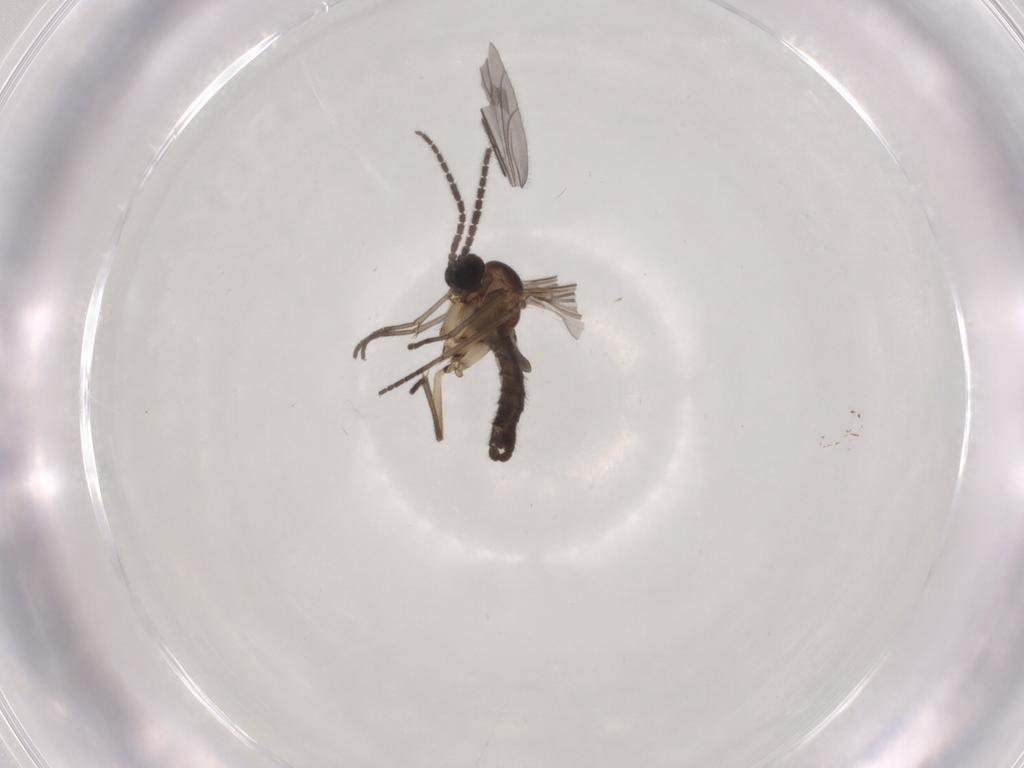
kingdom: Animalia
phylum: Arthropoda
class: Insecta
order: Diptera
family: Sciaridae
